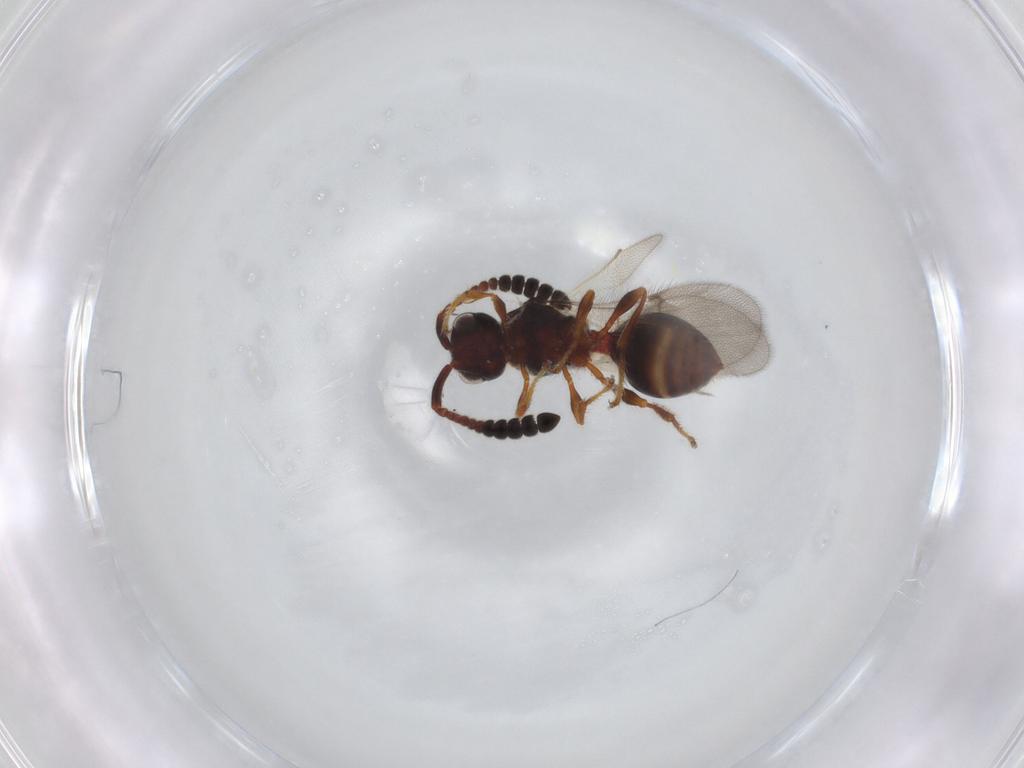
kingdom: Animalia
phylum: Arthropoda
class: Insecta
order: Hymenoptera
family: Diapriidae
